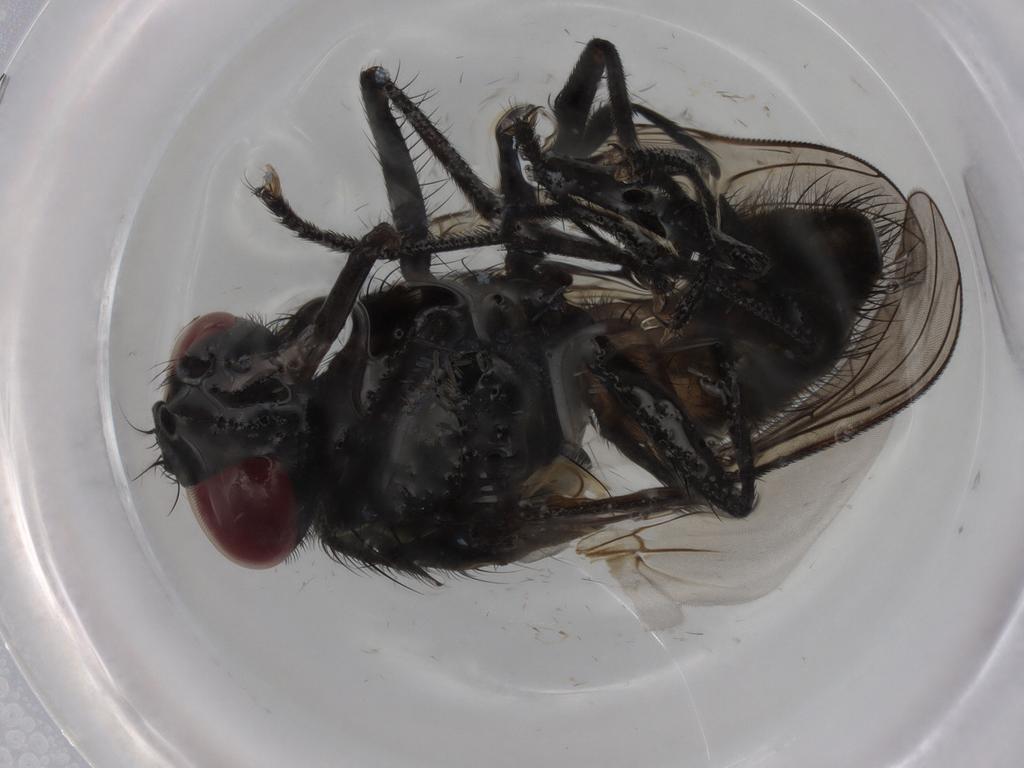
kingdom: Animalia
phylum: Arthropoda
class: Insecta
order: Diptera
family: Muscidae
